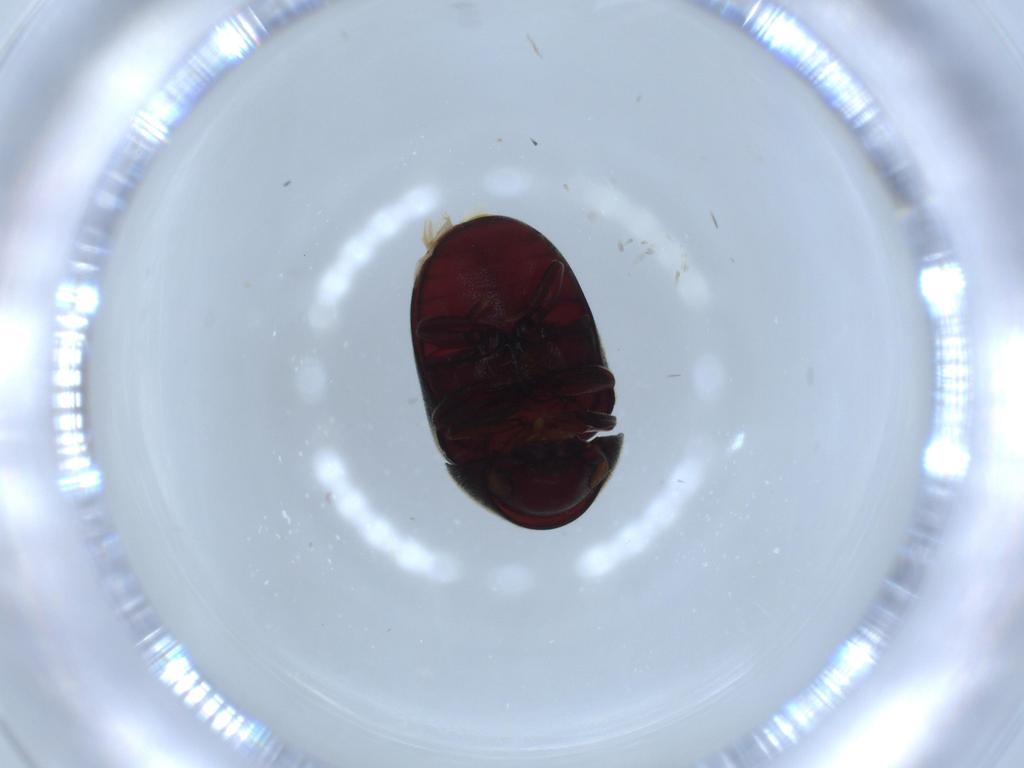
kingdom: Animalia
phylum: Arthropoda
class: Insecta
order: Coleoptera
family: Ptinidae
